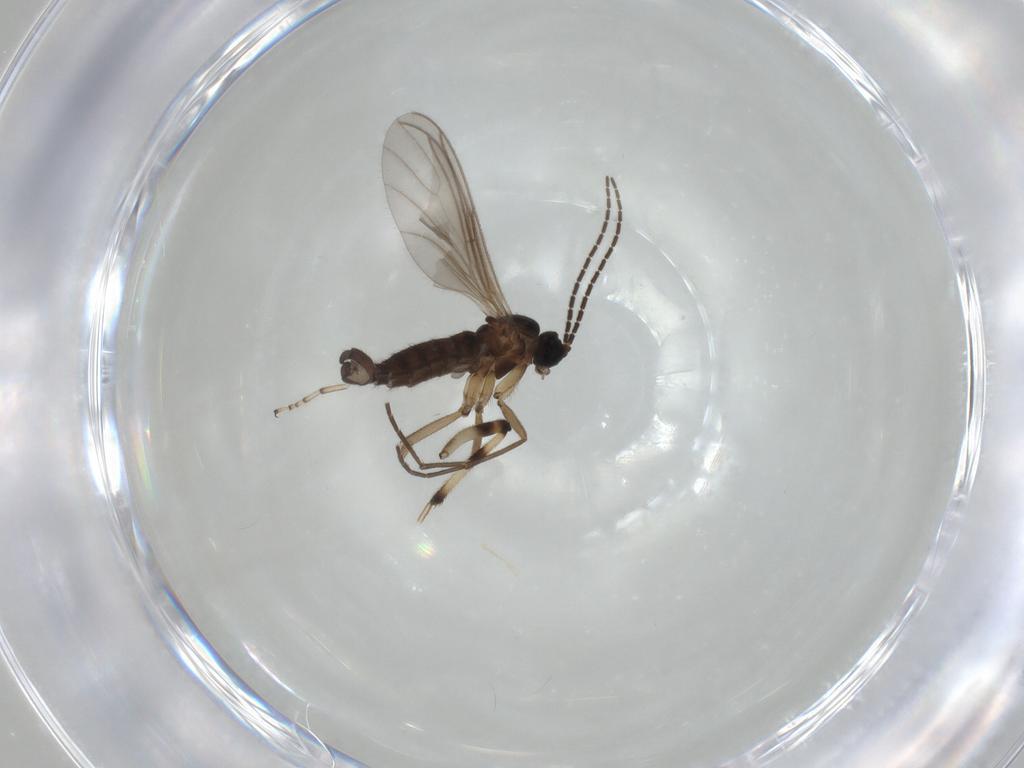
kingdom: Animalia
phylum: Arthropoda
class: Insecta
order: Diptera
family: Sciaridae
